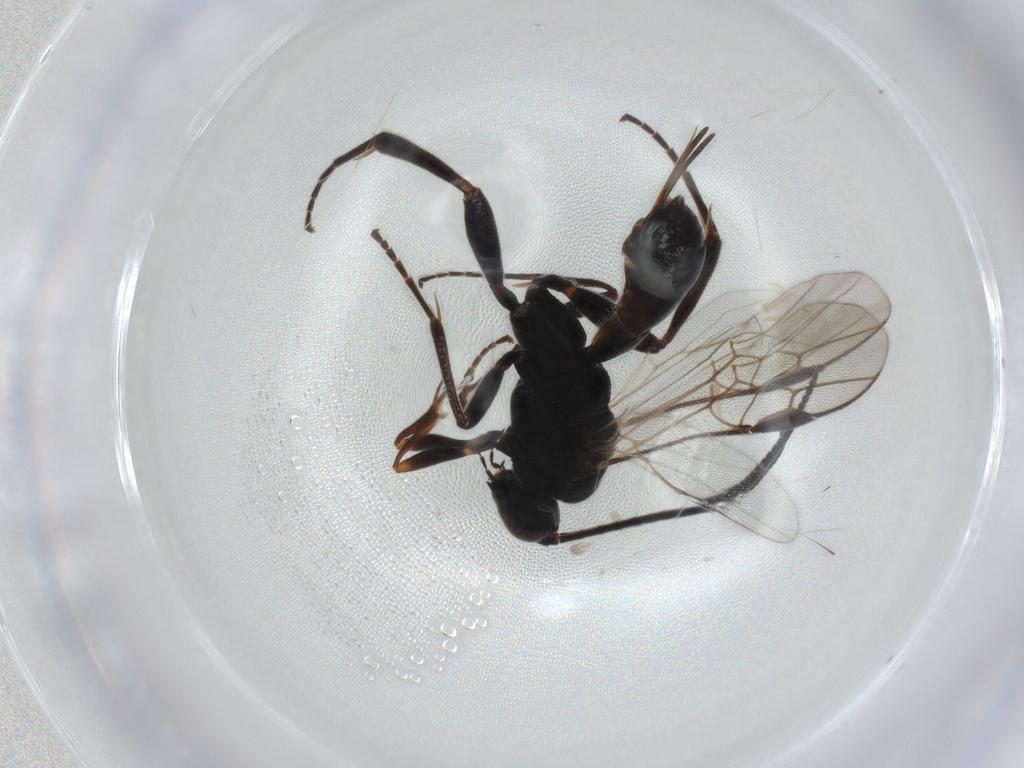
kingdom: Animalia
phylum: Arthropoda
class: Insecta
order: Hymenoptera
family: Braconidae
